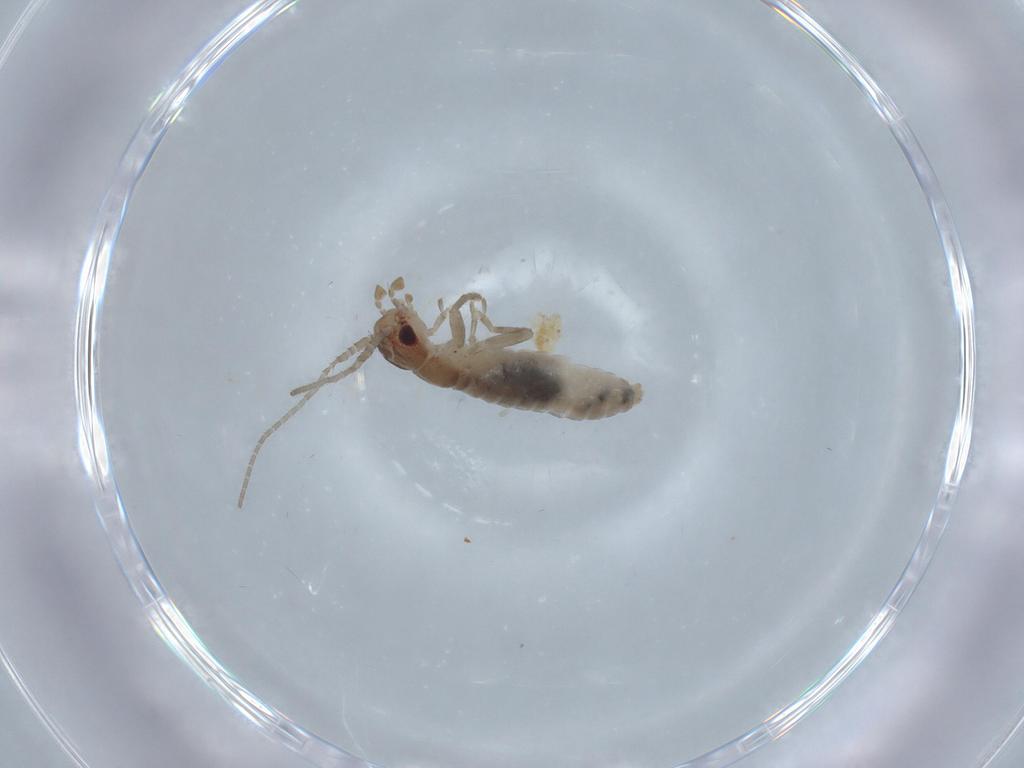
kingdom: Animalia
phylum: Arthropoda
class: Insecta
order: Orthoptera
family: Mogoplistidae
